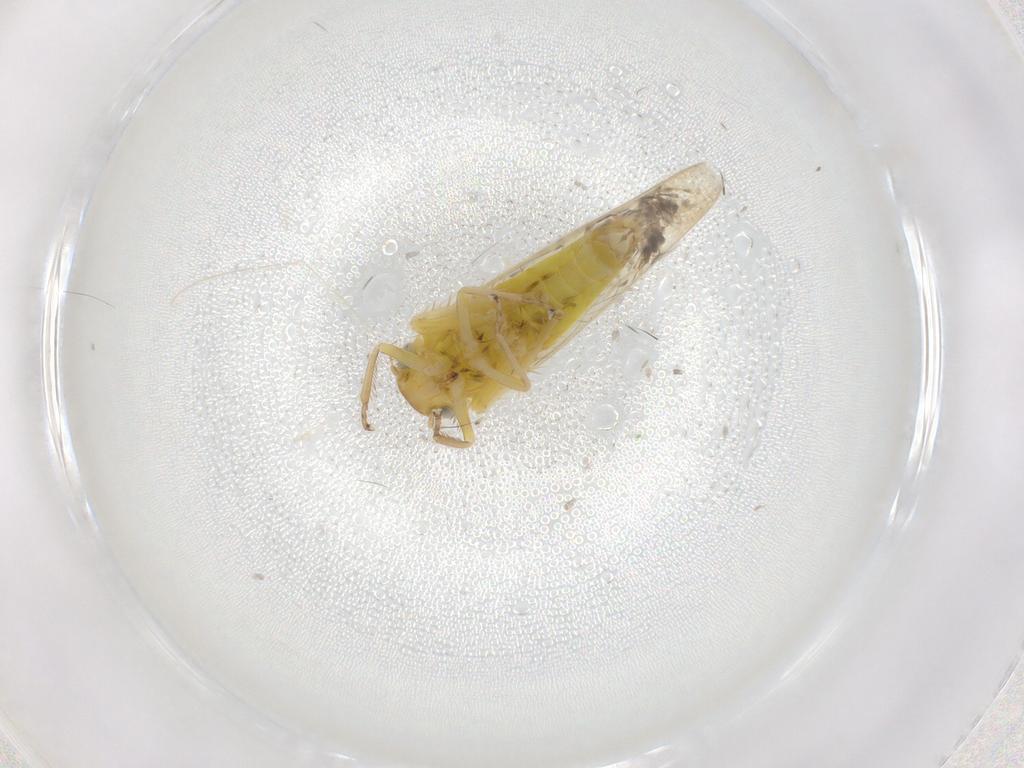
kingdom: Animalia
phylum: Arthropoda
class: Insecta
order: Hemiptera
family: Cicadellidae
